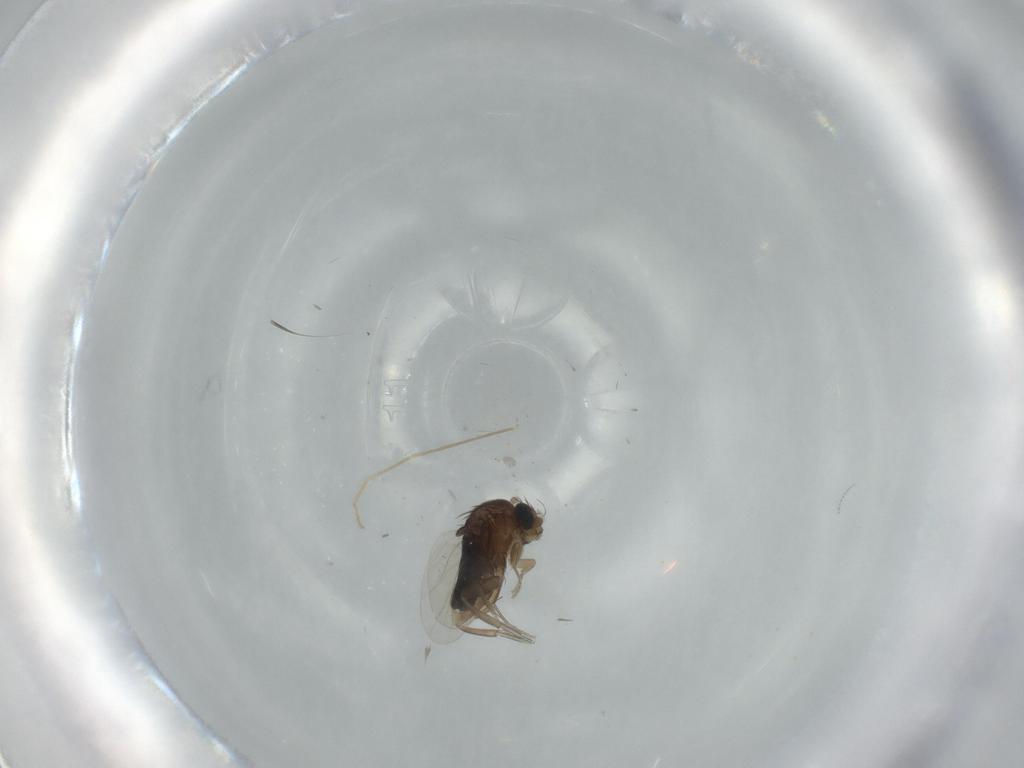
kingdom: Animalia
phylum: Arthropoda
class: Insecta
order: Diptera
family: Phoridae
